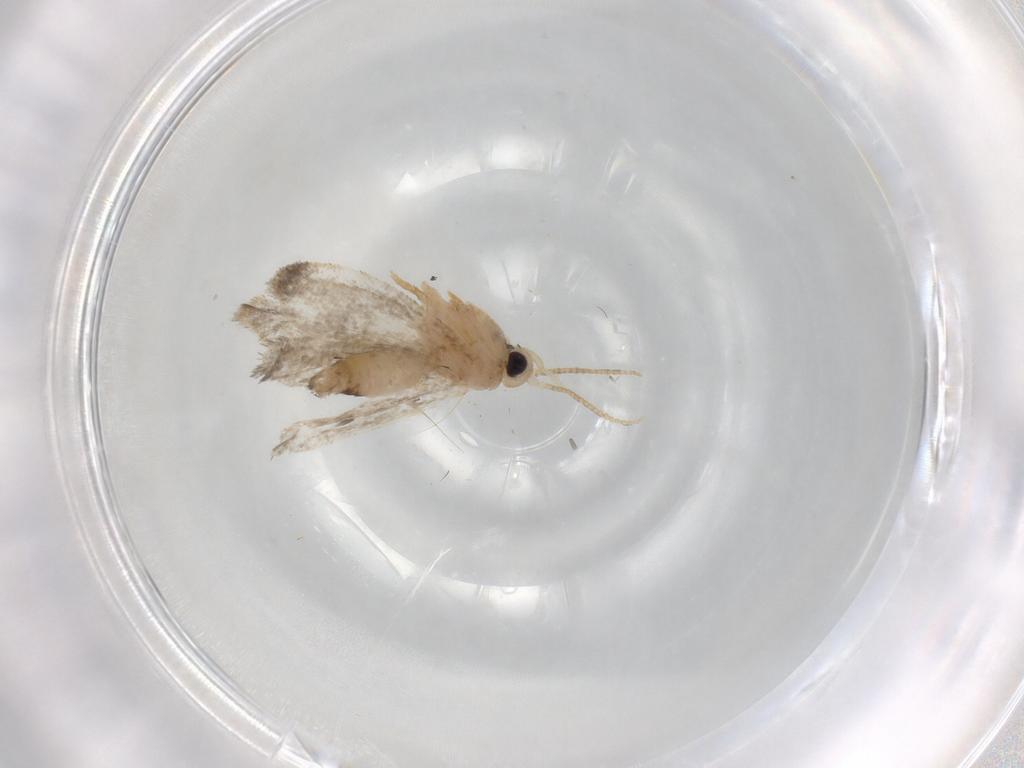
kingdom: Animalia
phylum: Arthropoda
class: Insecta
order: Lepidoptera
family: Psychidae
